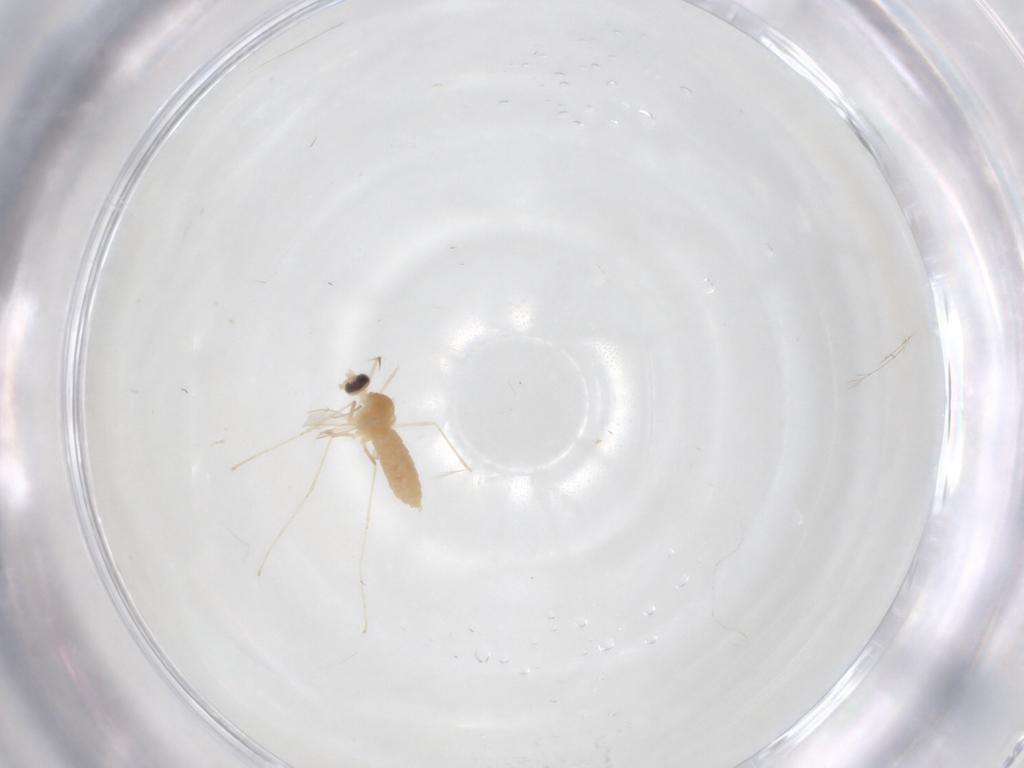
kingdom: Animalia
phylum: Arthropoda
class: Insecta
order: Diptera
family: Cecidomyiidae
